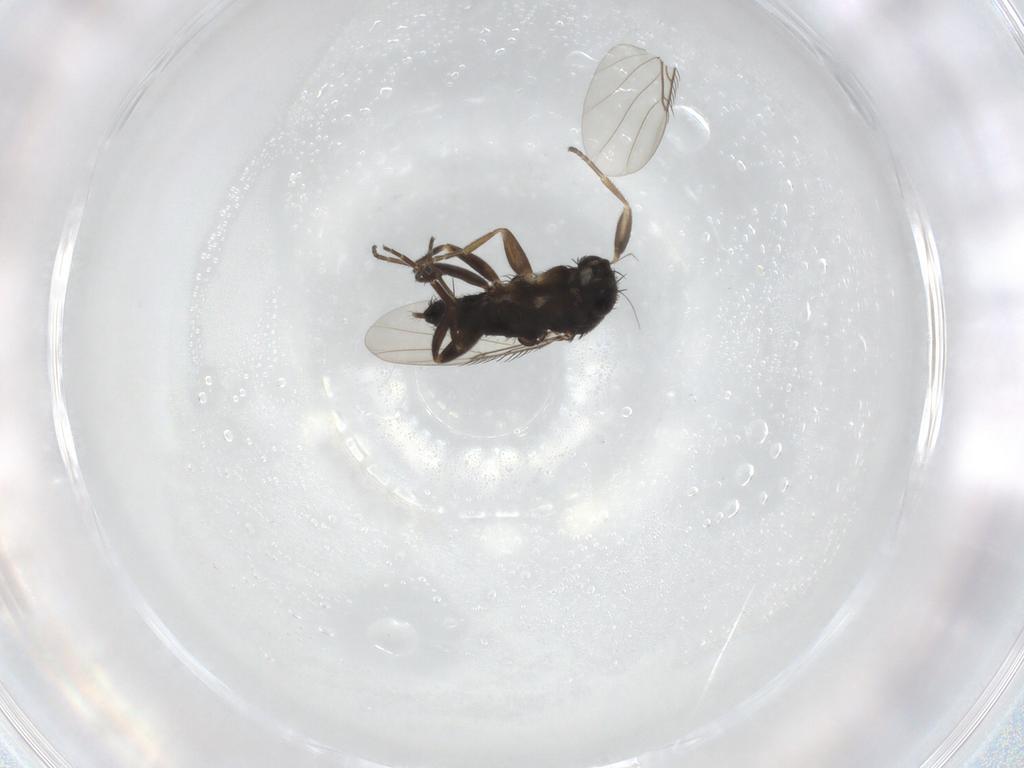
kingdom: Animalia
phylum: Arthropoda
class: Insecta
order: Diptera
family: Phoridae
